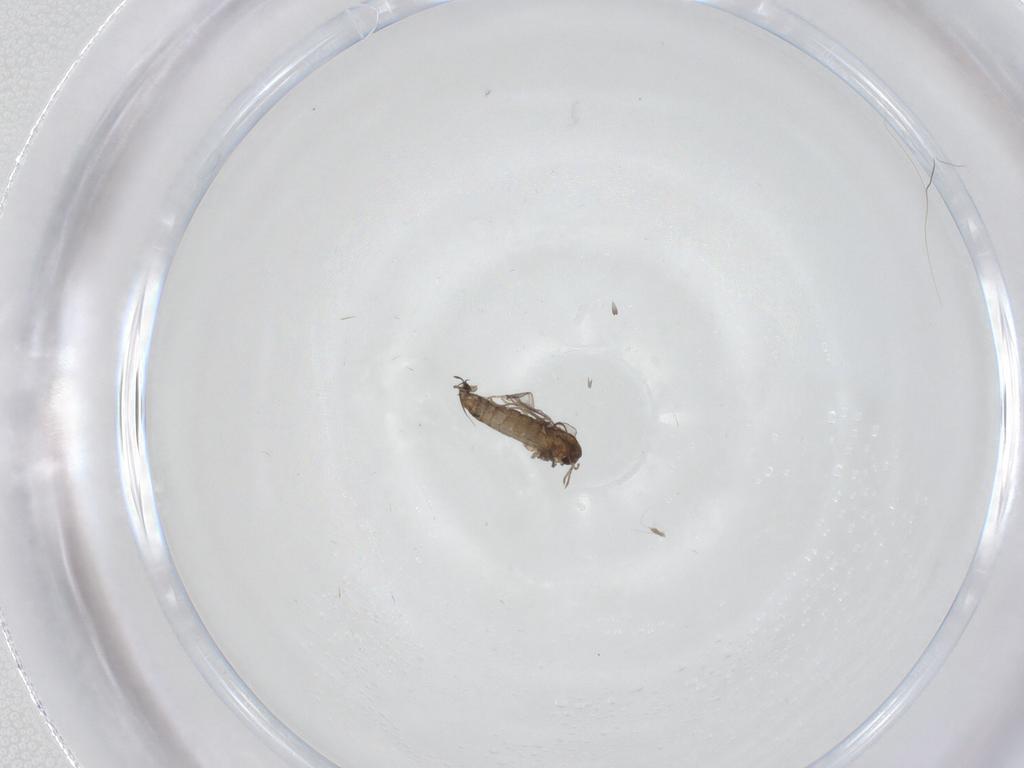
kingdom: Animalia
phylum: Arthropoda
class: Insecta
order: Diptera
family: Chironomidae
